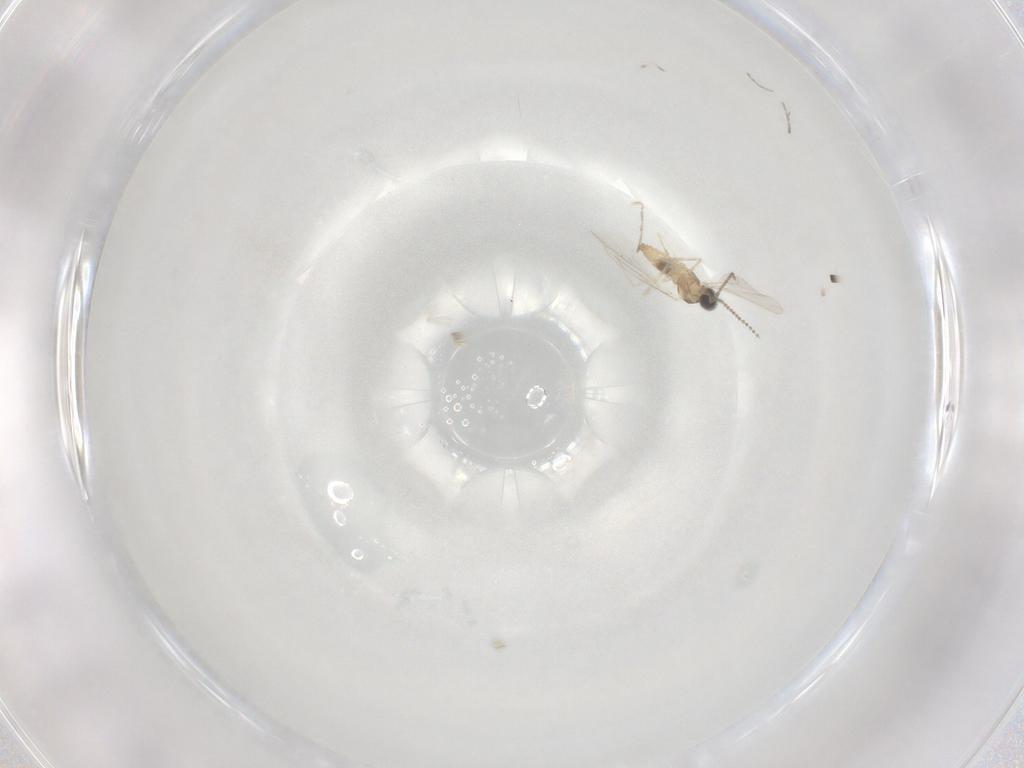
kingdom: Animalia
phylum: Arthropoda
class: Insecta
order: Diptera
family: Cecidomyiidae
